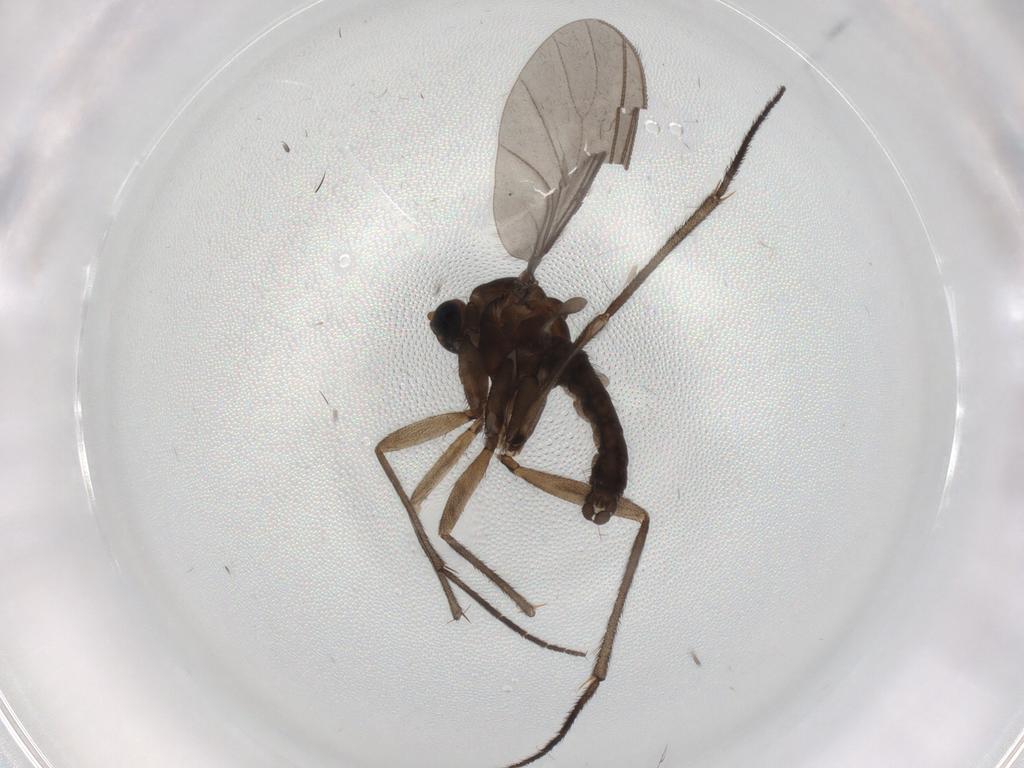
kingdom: Animalia
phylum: Arthropoda
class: Insecta
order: Diptera
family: Sciaridae
